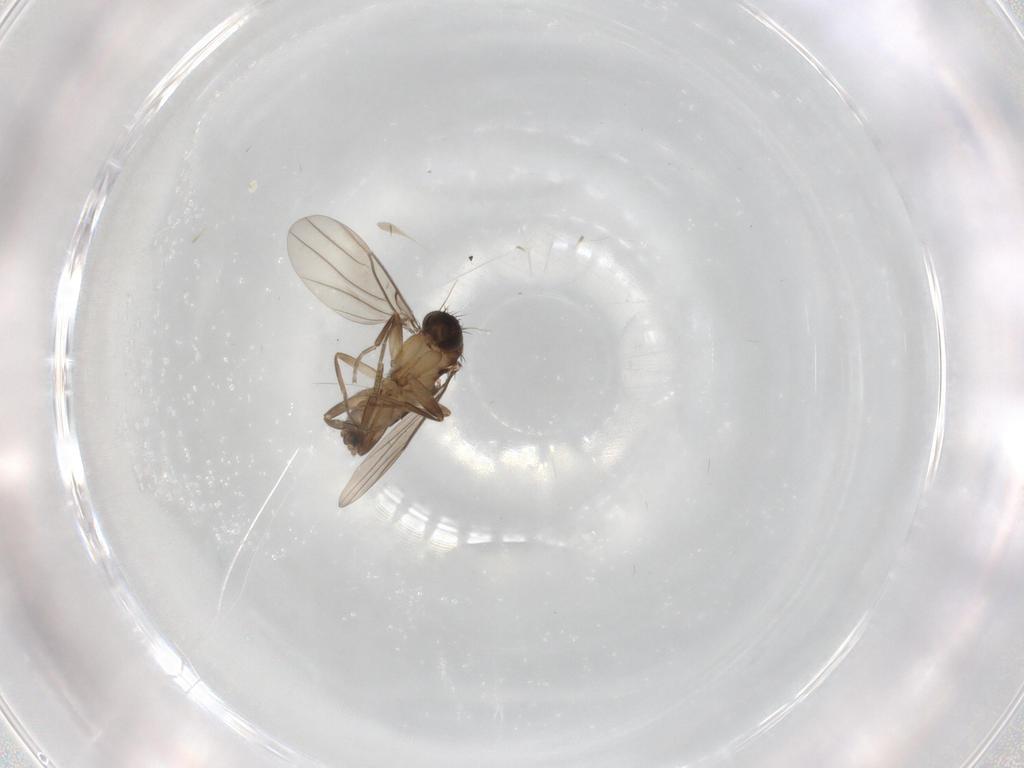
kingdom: Animalia
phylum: Arthropoda
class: Insecta
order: Diptera
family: Phoridae
